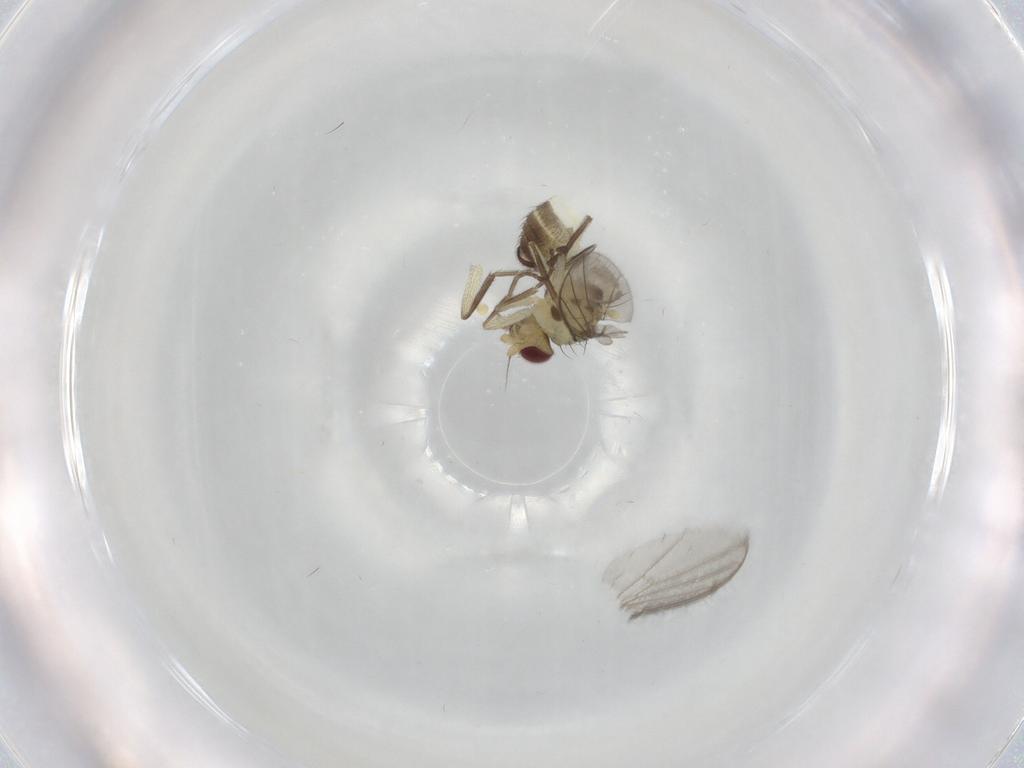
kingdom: Animalia
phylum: Arthropoda
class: Insecta
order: Diptera
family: Agromyzidae
